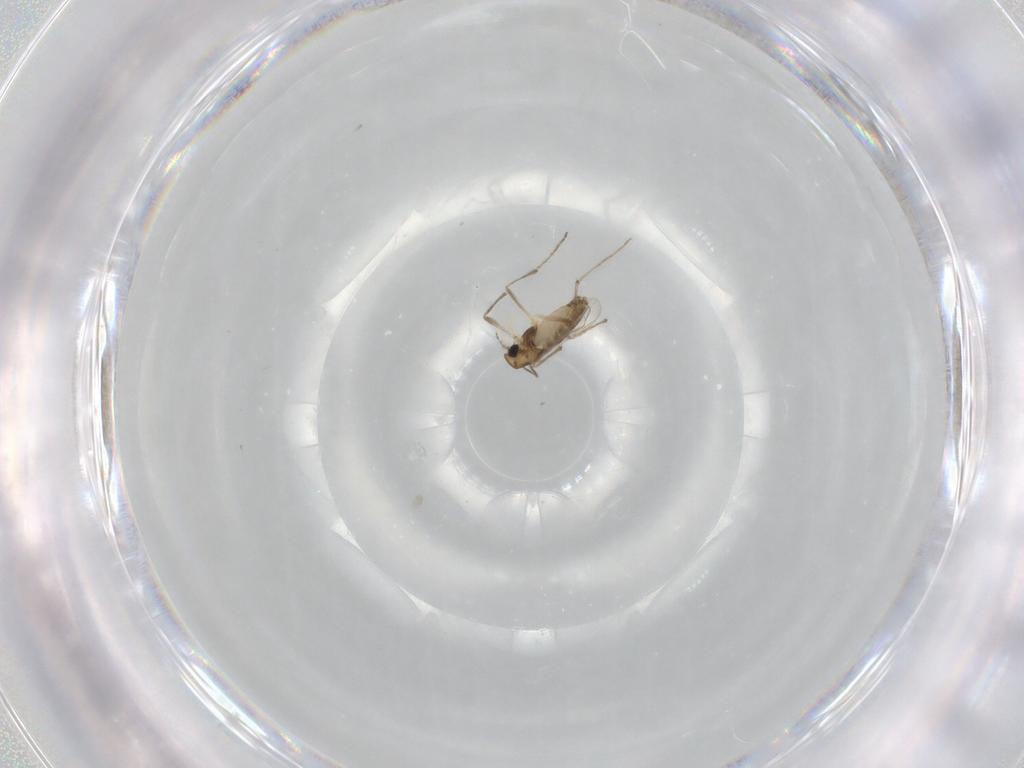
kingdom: Animalia
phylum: Arthropoda
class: Insecta
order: Diptera
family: Chironomidae
